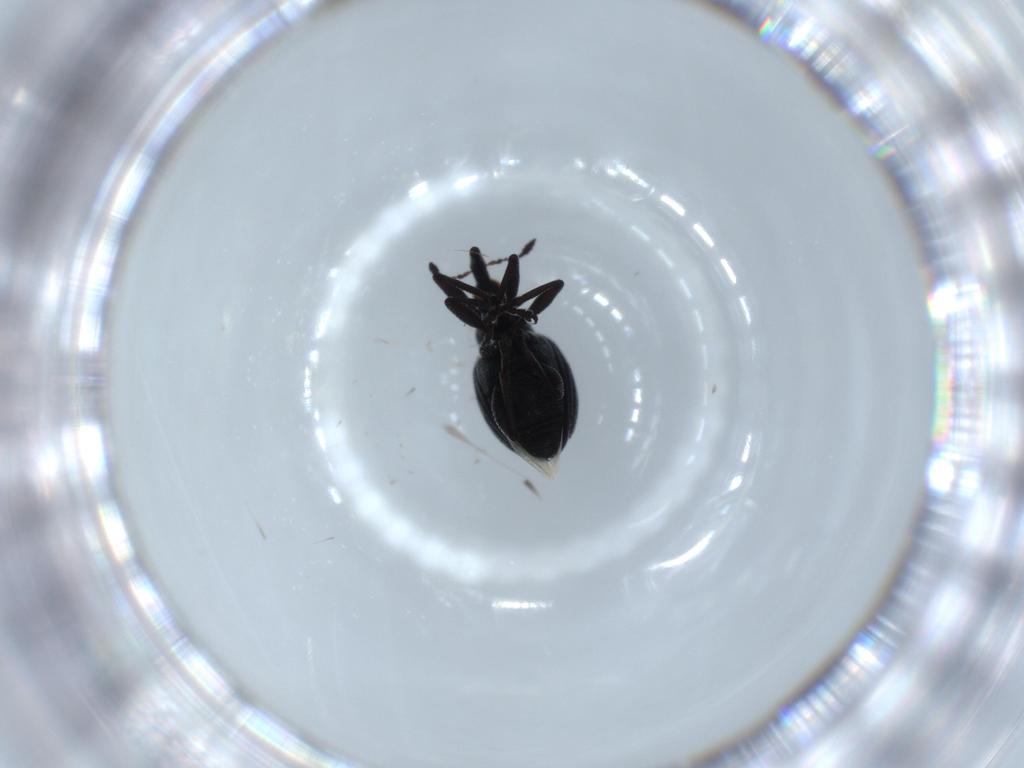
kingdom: Animalia
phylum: Arthropoda
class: Insecta
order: Coleoptera
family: Brentidae
